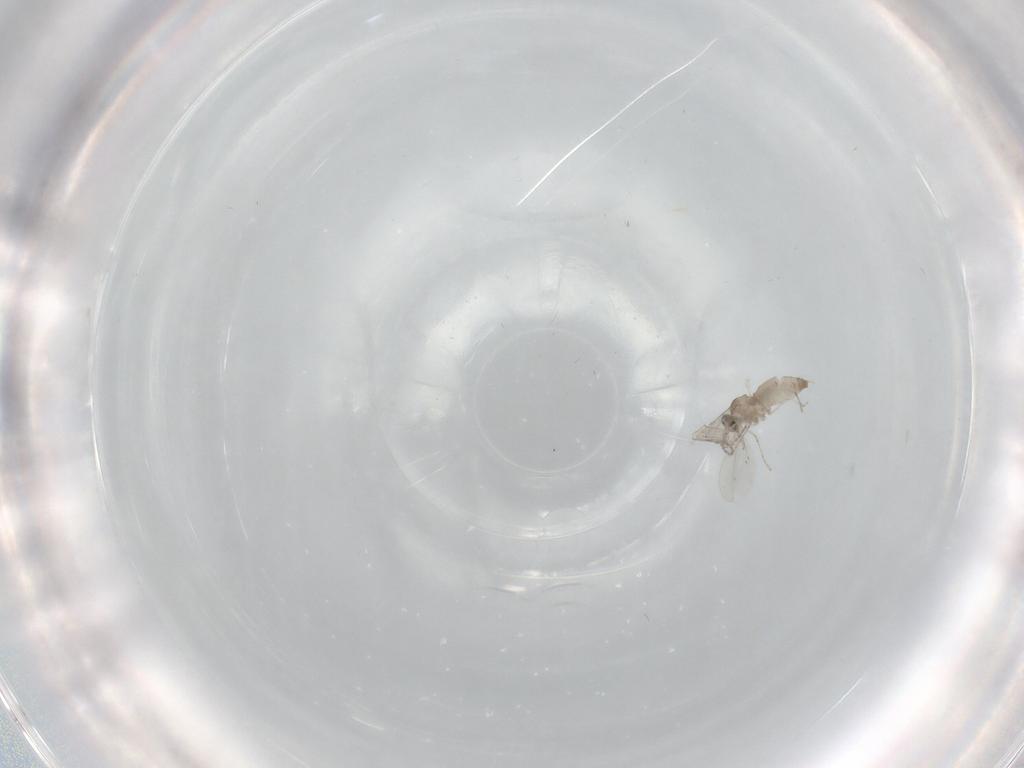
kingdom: Animalia
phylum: Arthropoda
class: Insecta
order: Diptera
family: Cecidomyiidae
